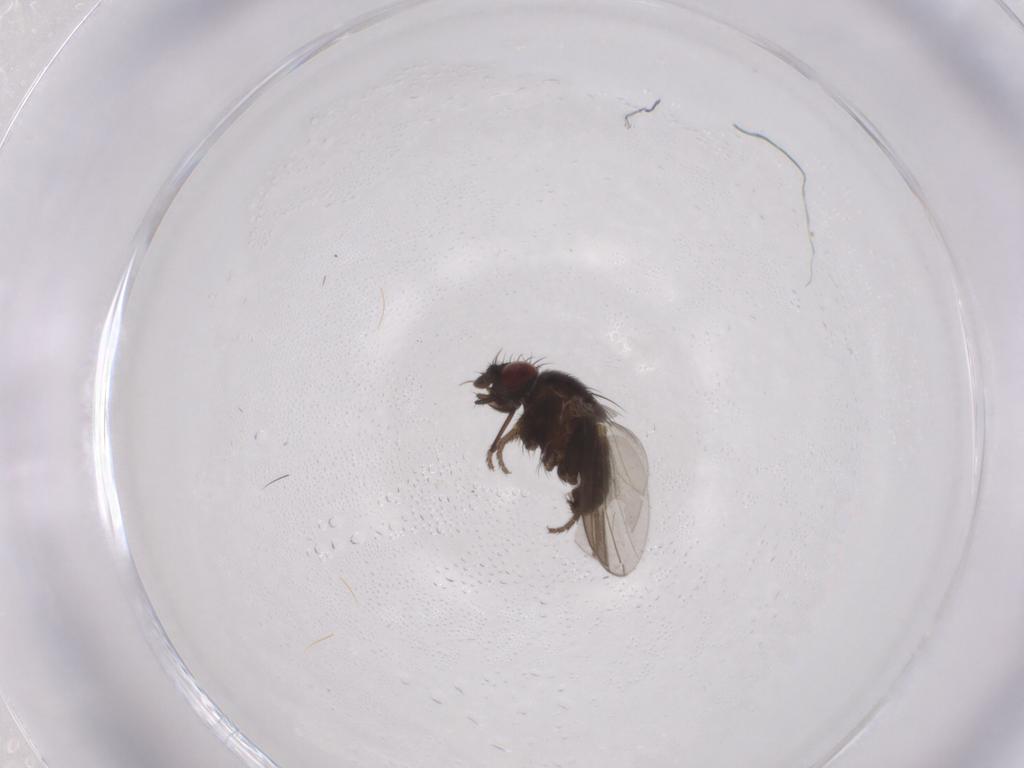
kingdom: Animalia
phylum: Arthropoda
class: Insecta
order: Diptera
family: Milichiidae
